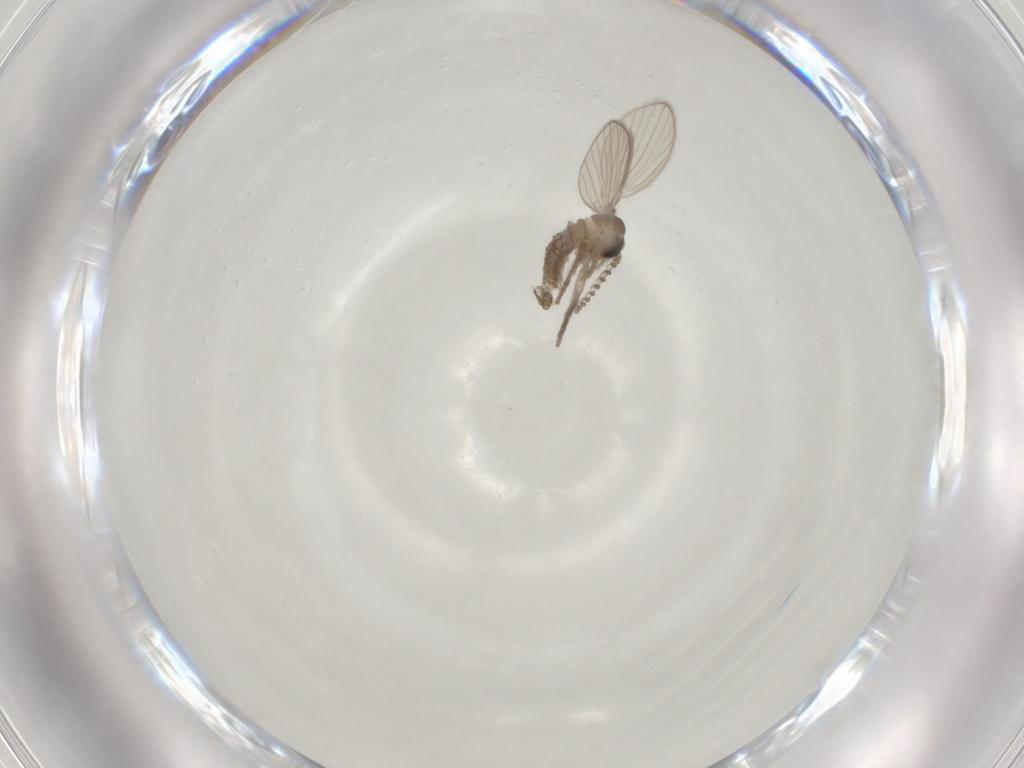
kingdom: Animalia
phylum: Arthropoda
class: Insecta
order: Diptera
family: Psychodidae
